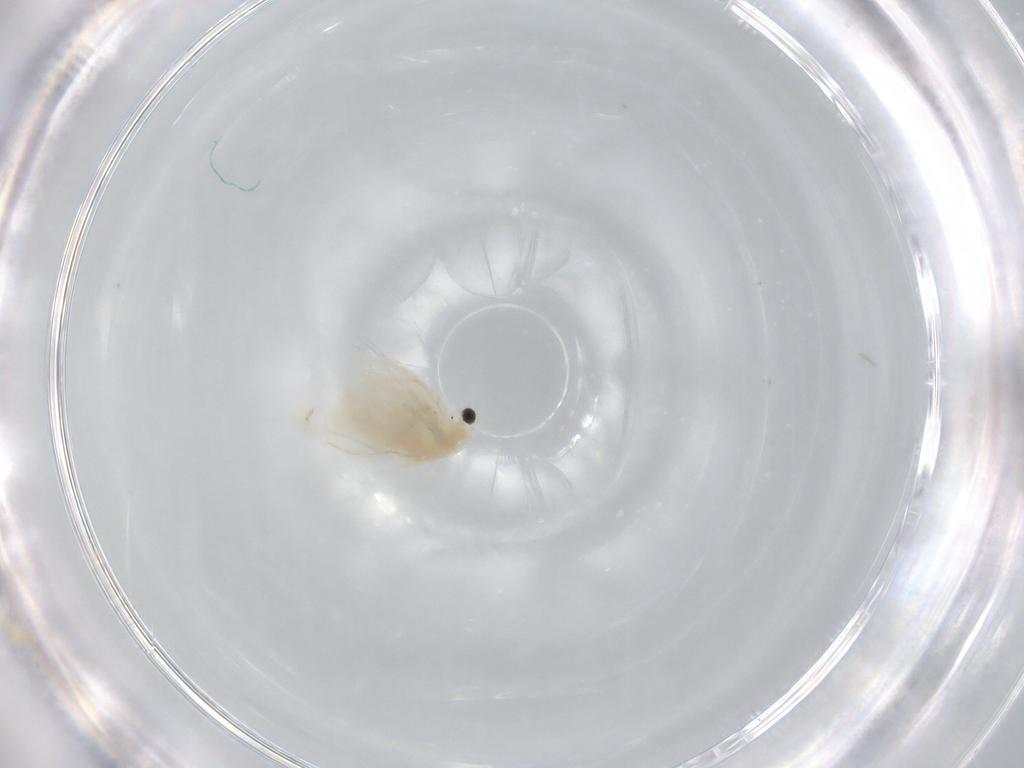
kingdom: Animalia
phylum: Arthropoda
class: Branchiopoda
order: Diplostraca
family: Daphniidae
